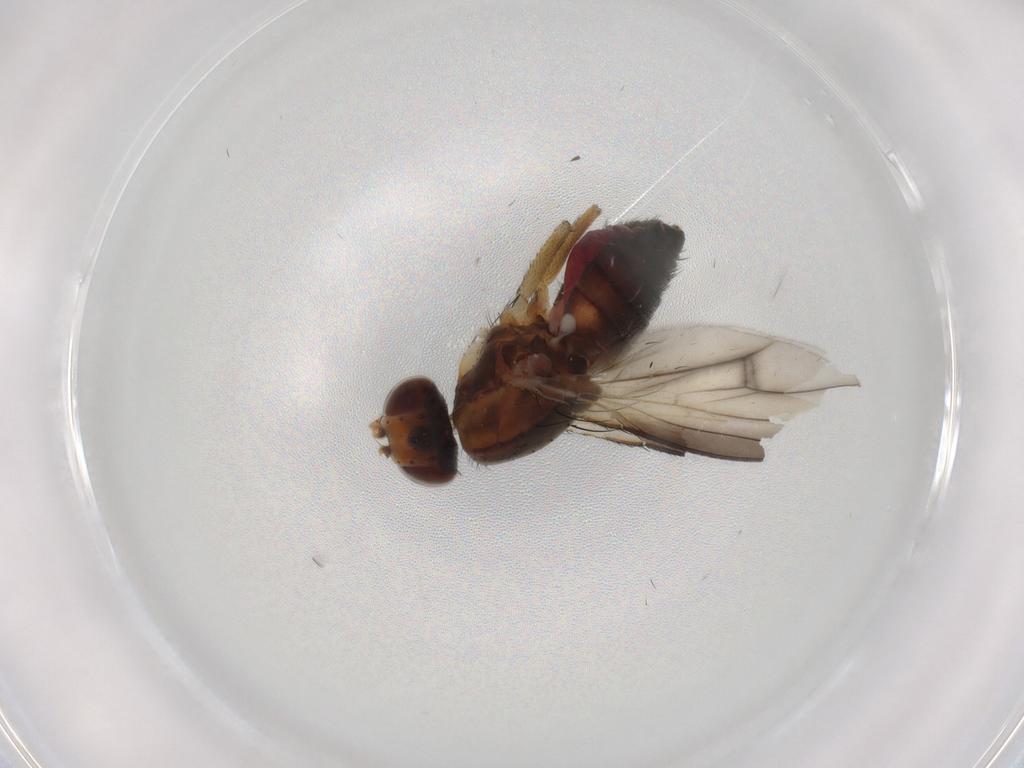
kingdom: Animalia
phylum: Arthropoda
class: Insecta
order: Diptera
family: Heleomyzidae
